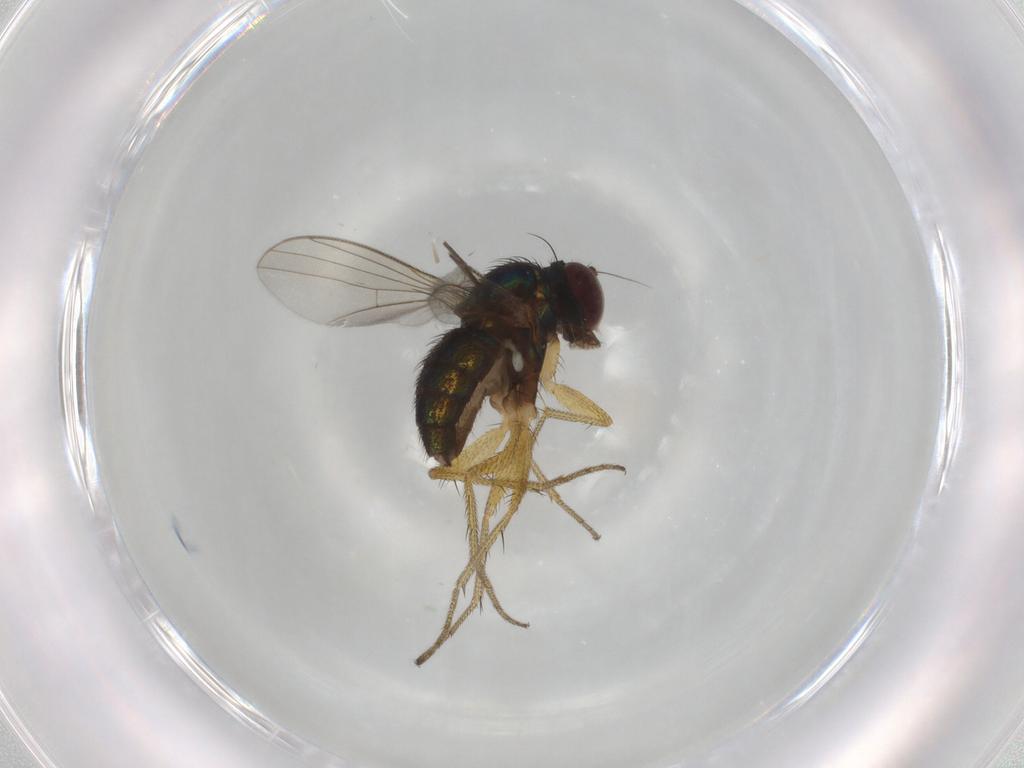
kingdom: Animalia
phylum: Arthropoda
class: Insecta
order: Diptera
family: Dolichopodidae
